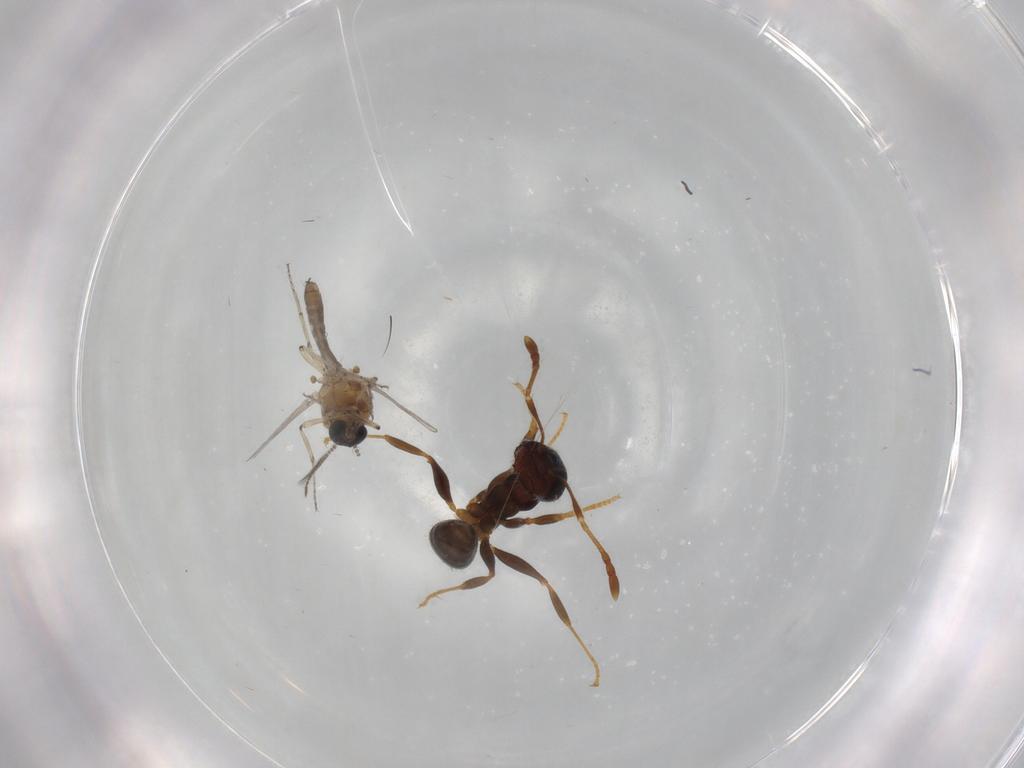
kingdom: Animalia
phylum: Arthropoda
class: Insecta
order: Diptera
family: Ceratopogonidae
